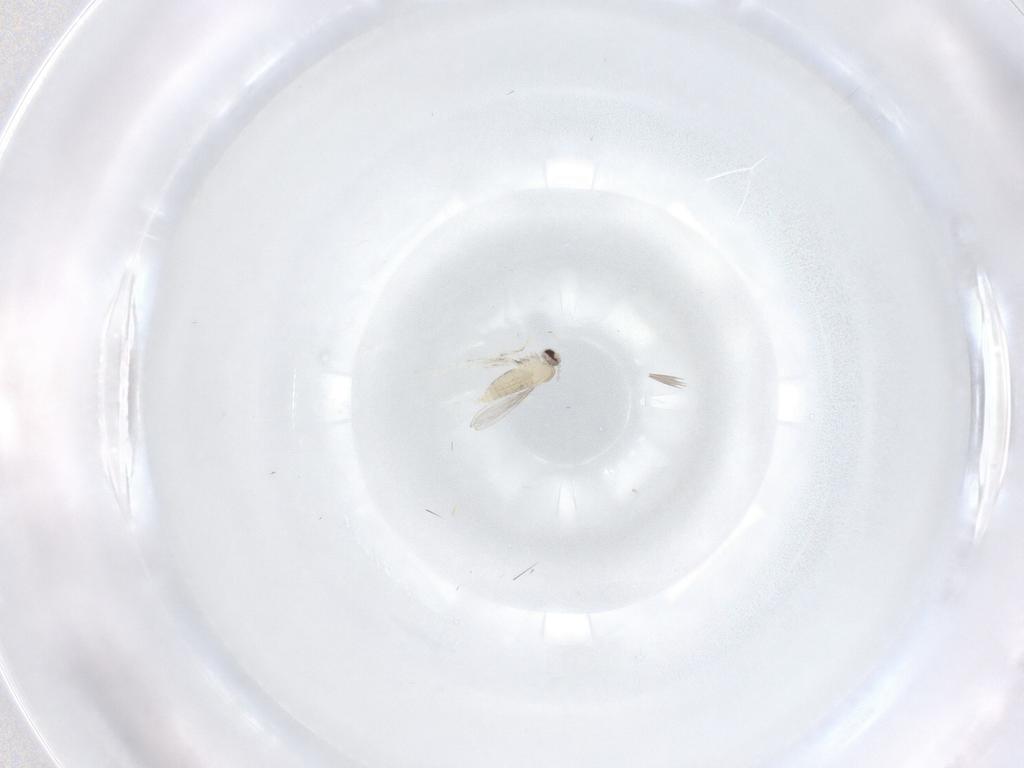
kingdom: Animalia
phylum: Arthropoda
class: Insecta
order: Diptera
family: Cecidomyiidae
